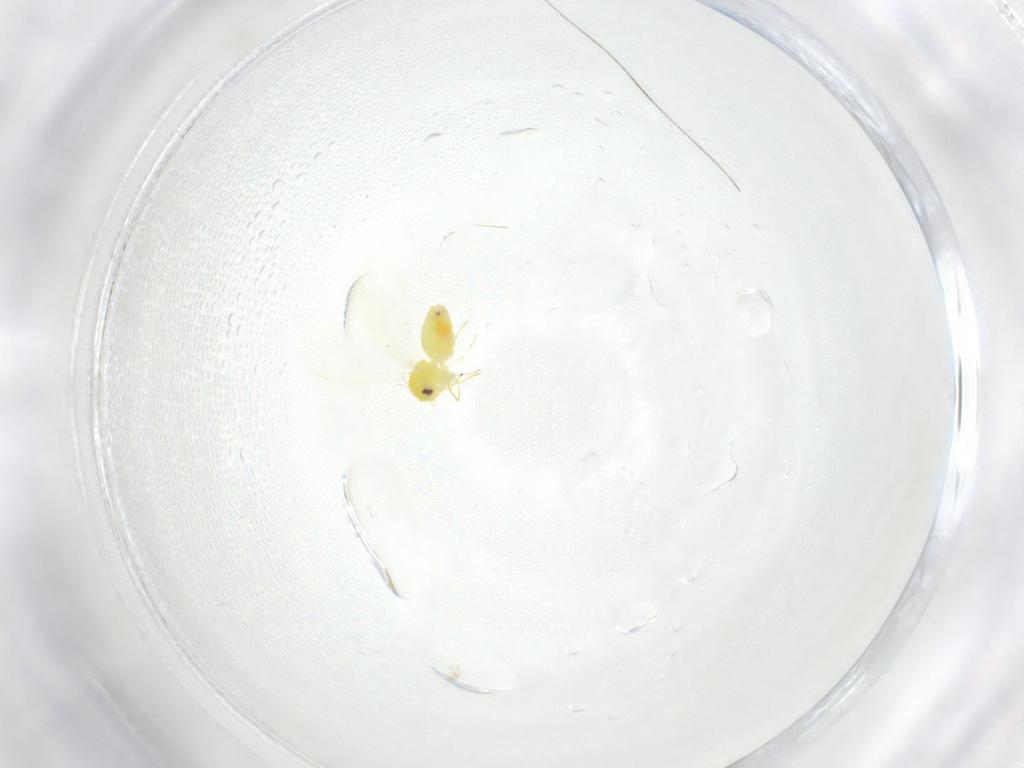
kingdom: Animalia
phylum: Arthropoda
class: Insecta
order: Hemiptera
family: Aleyrodidae
